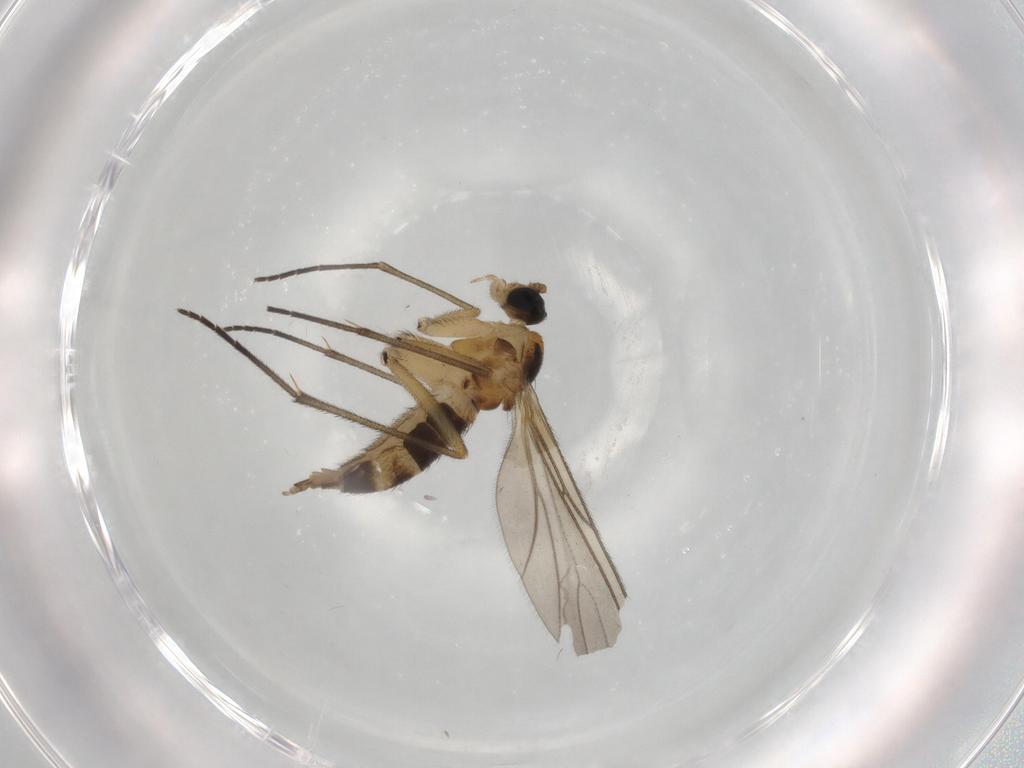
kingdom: Animalia
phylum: Arthropoda
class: Insecta
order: Diptera
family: Sciaridae
